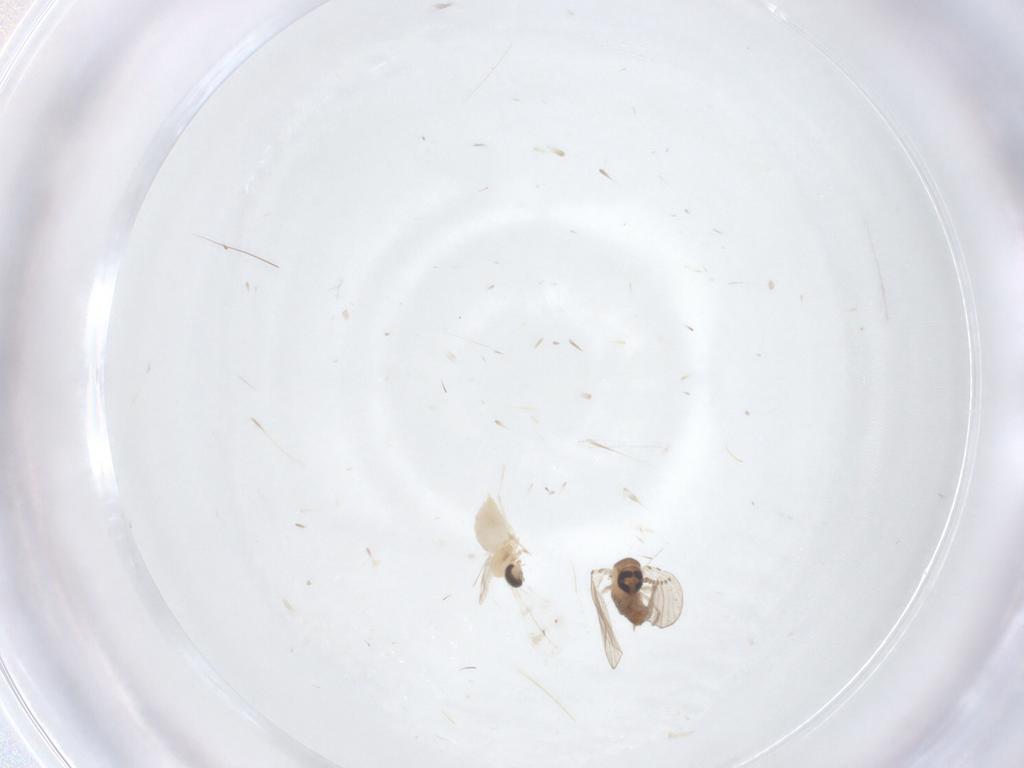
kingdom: Animalia
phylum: Arthropoda
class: Insecta
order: Diptera
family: Cecidomyiidae
